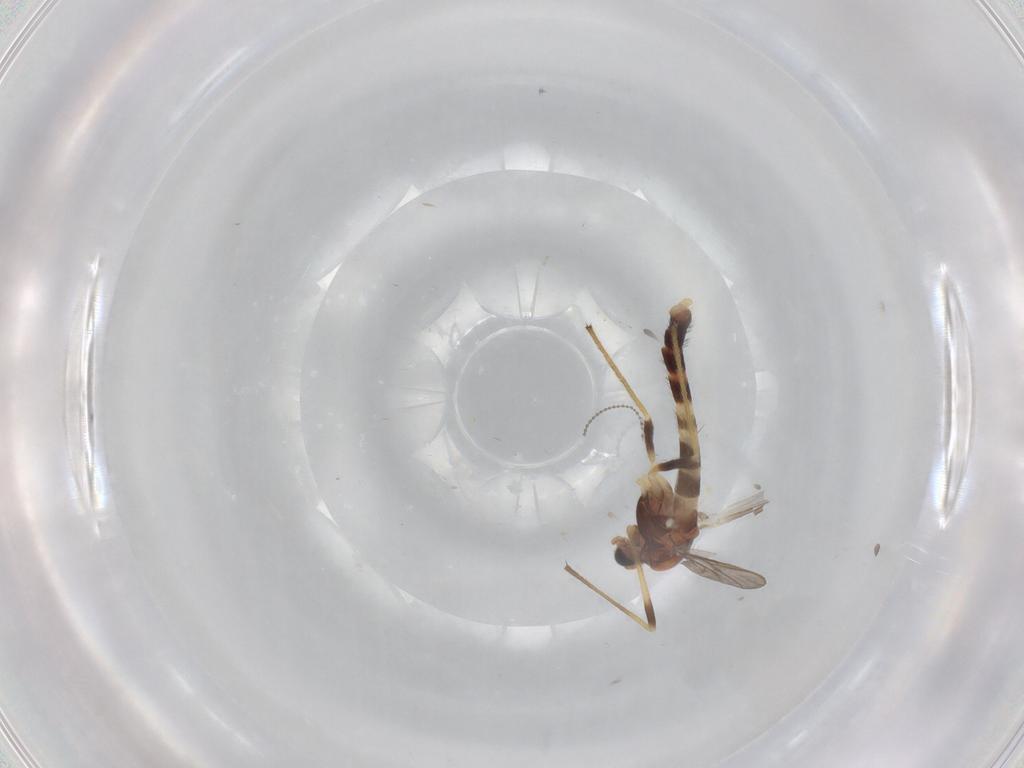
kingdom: Animalia
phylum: Arthropoda
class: Insecta
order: Diptera
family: Chironomidae
